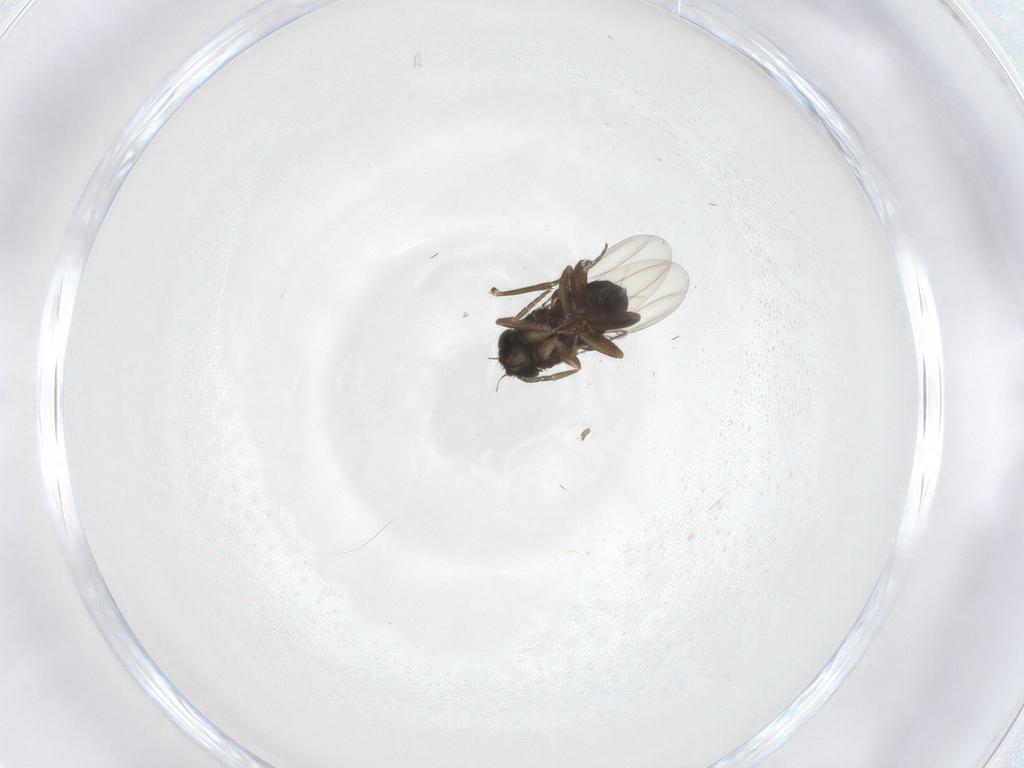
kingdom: Animalia
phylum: Arthropoda
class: Insecta
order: Diptera
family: Phoridae
